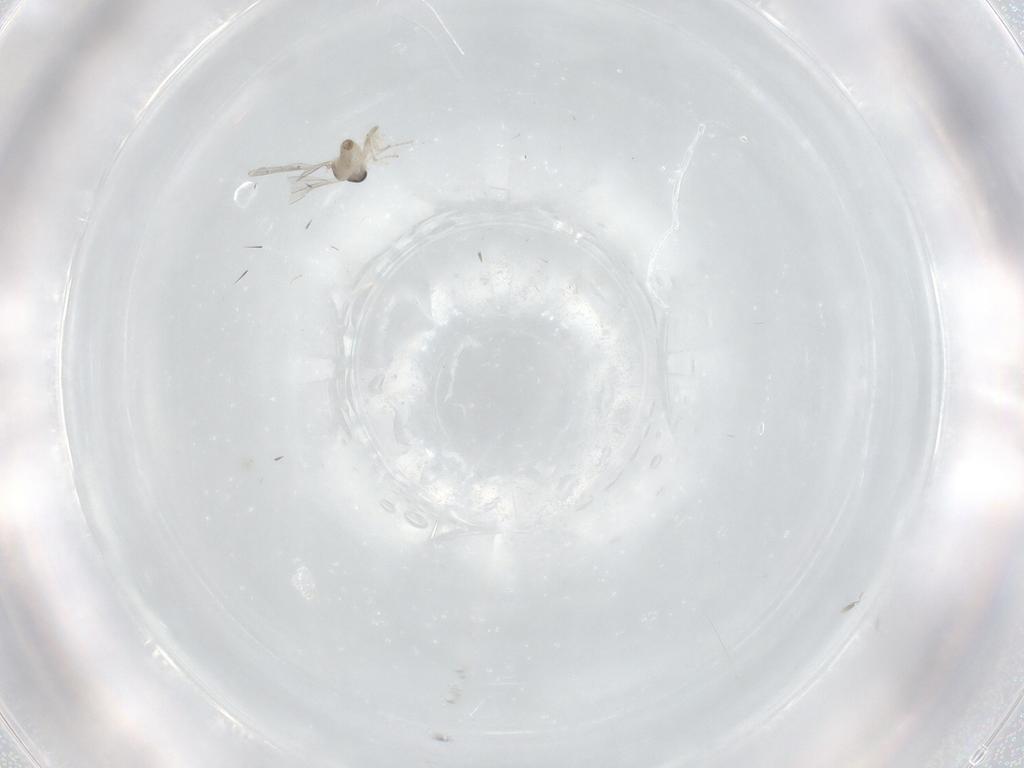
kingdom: Animalia
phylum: Arthropoda
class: Insecta
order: Diptera
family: Cecidomyiidae
